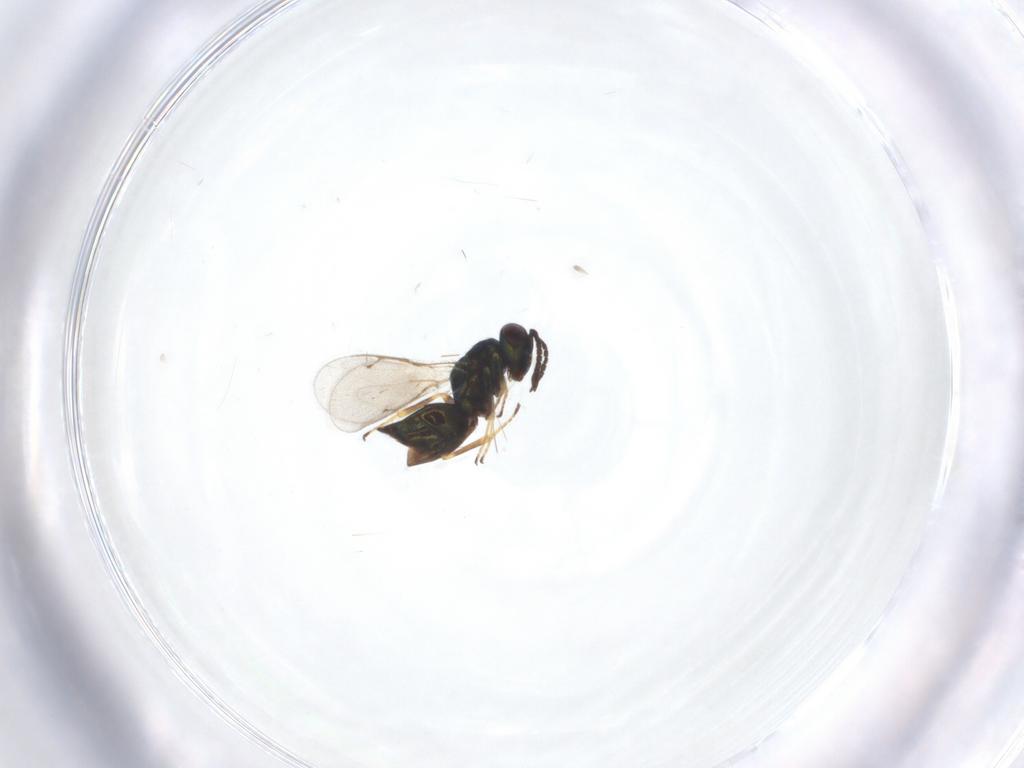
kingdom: Animalia
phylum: Arthropoda
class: Insecta
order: Hymenoptera
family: Pteromalidae
